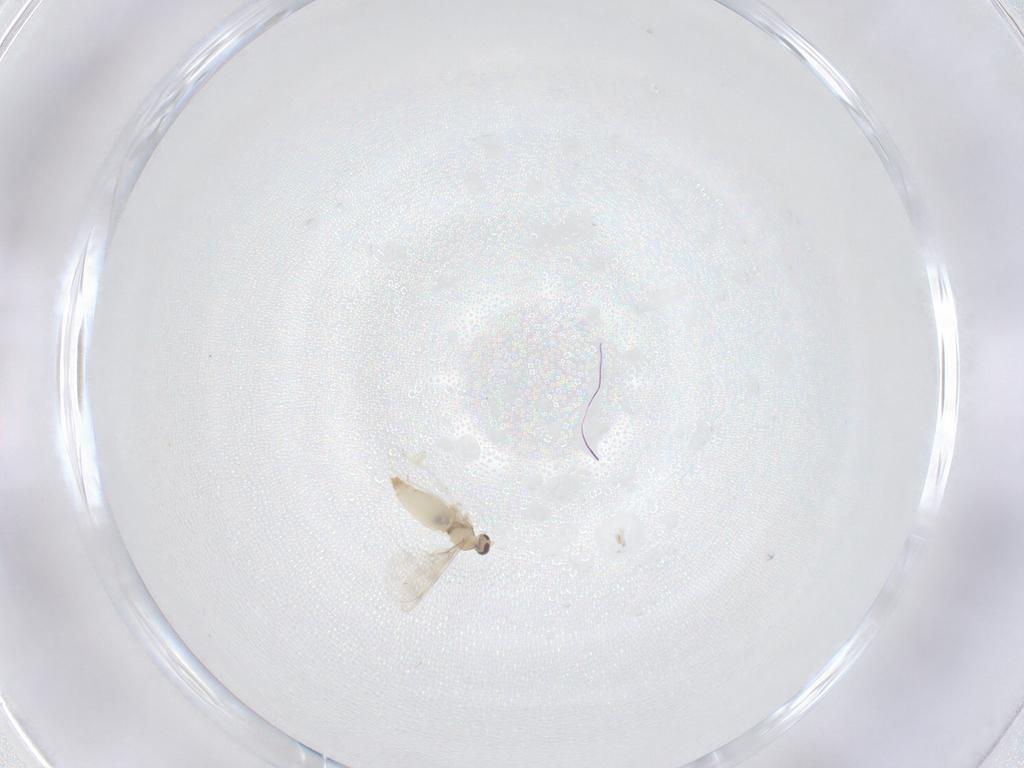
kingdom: Animalia
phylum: Arthropoda
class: Insecta
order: Diptera
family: Cecidomyiidae
